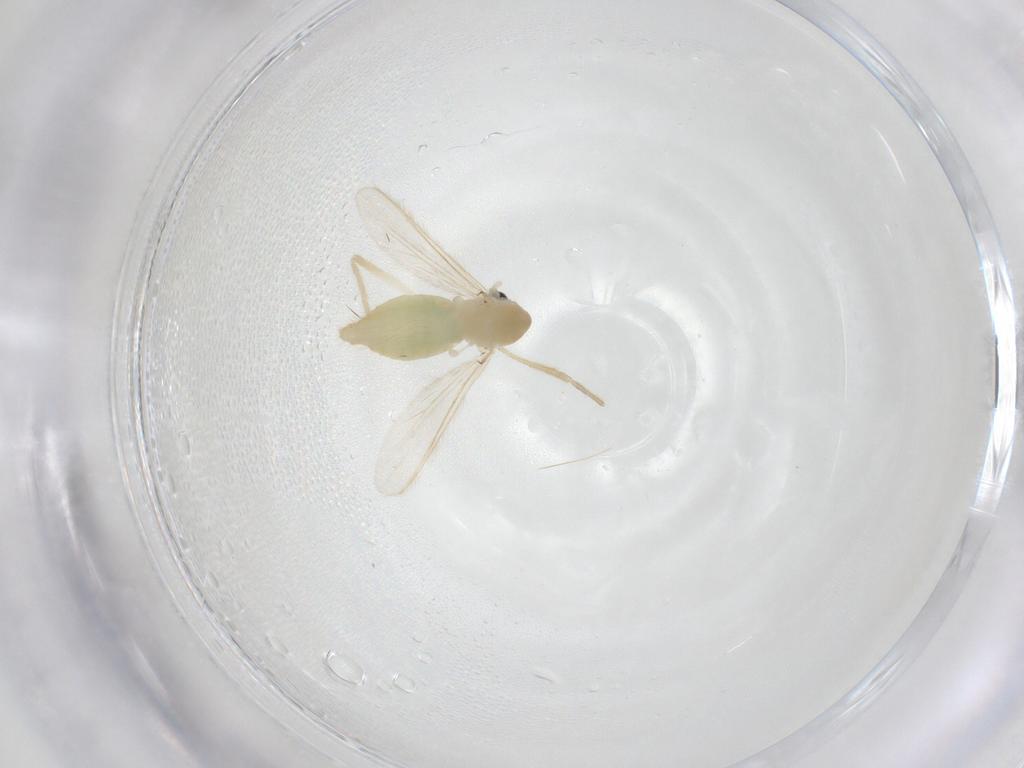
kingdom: Animalia
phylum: Arthropoda
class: Insecta
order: Diptera
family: Chironomidae
